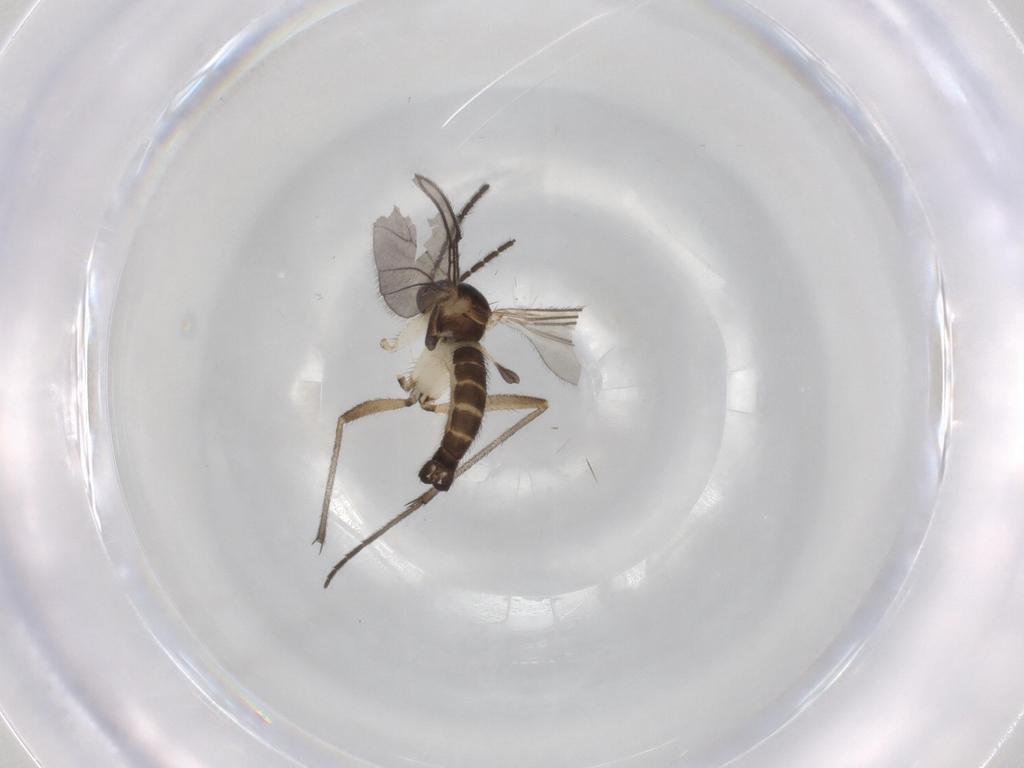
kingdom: Animalia
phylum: Arthropoda
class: Insecta
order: Diptera
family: Sciaridae
